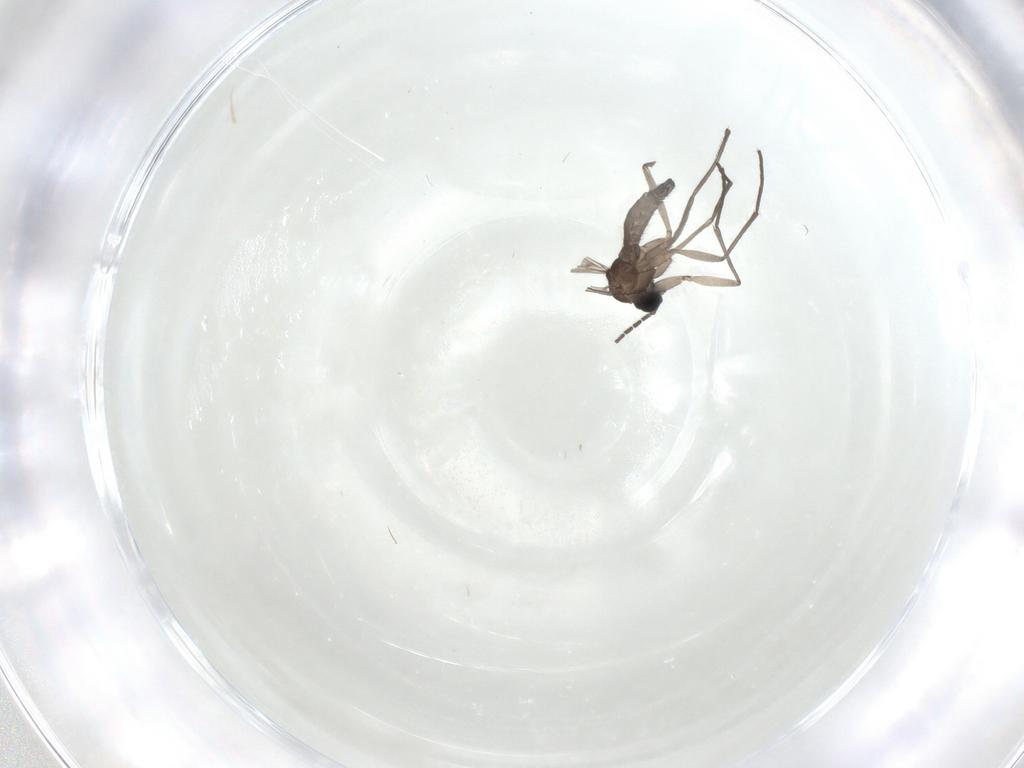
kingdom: Animalia
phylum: Arthropoda
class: Insecta
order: Diptera
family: Sciaridae
